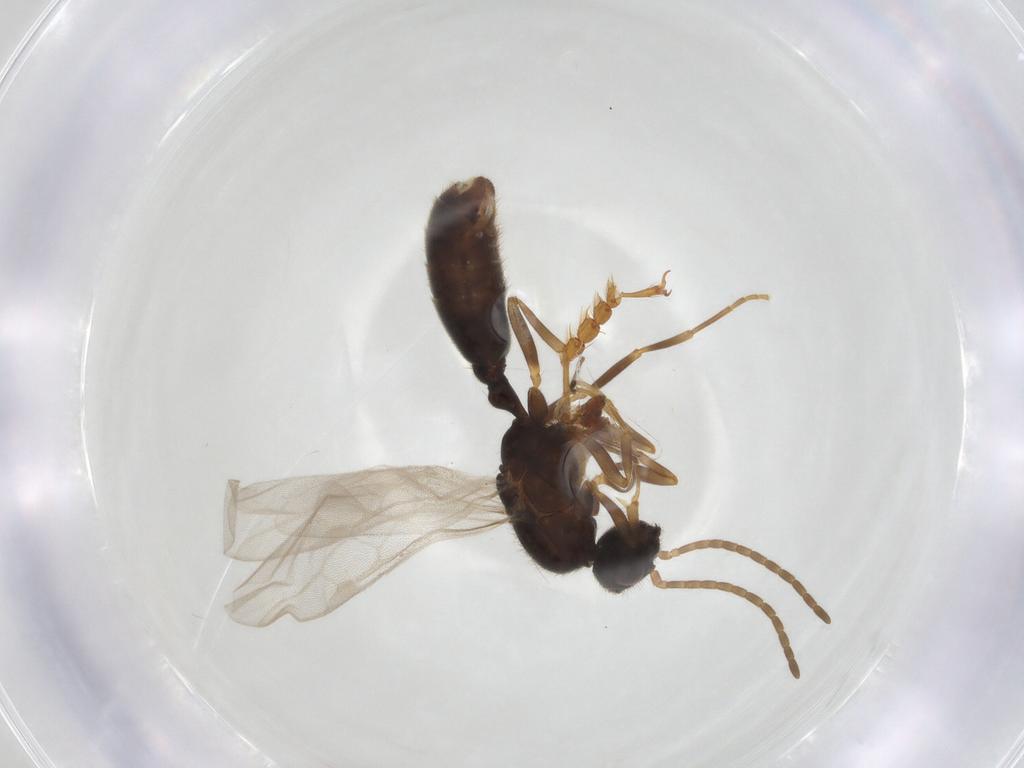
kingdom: Animalia
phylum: Arthropoda
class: Insecta
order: Hymenoptera
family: Formicidae
